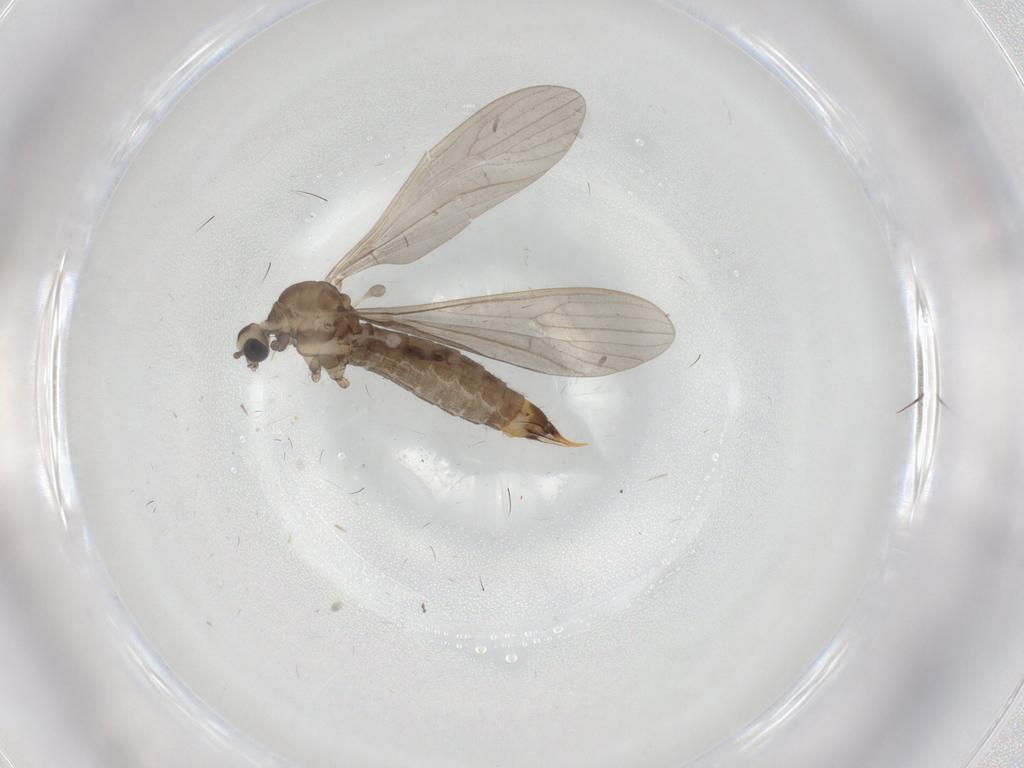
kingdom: Animalia
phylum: Arthropoda
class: Insecta
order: Diptera
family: Limoniidae
